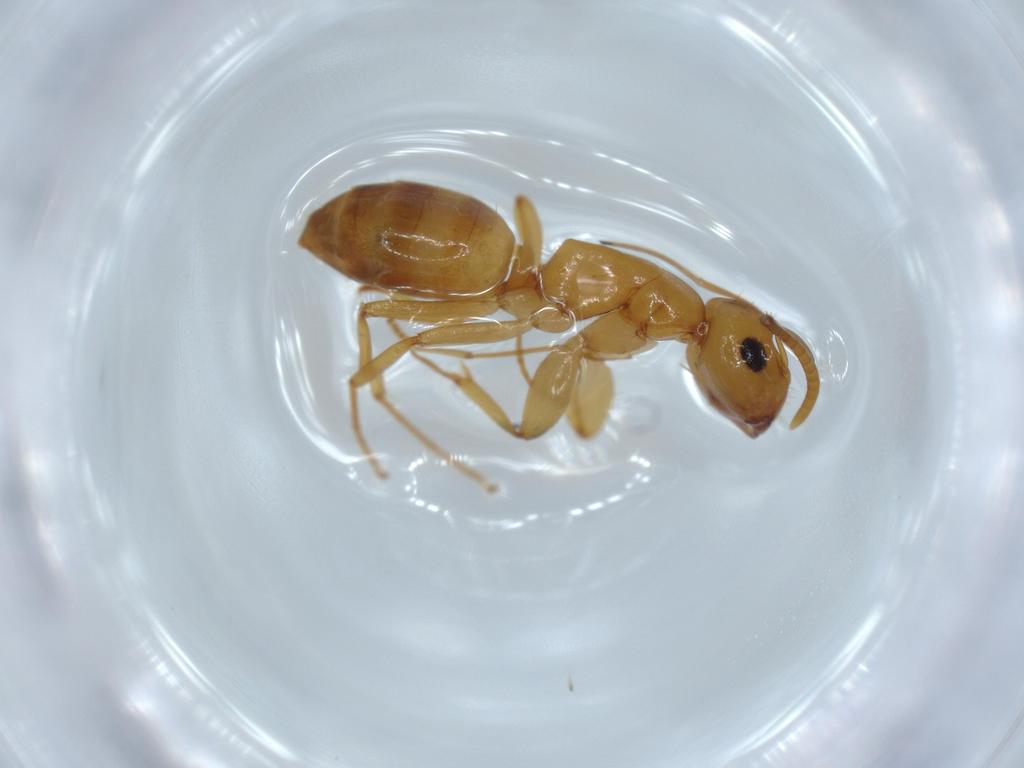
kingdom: Animalia
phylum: Arthropoda
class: Insecta
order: Hymenoptera
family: Formicidae
